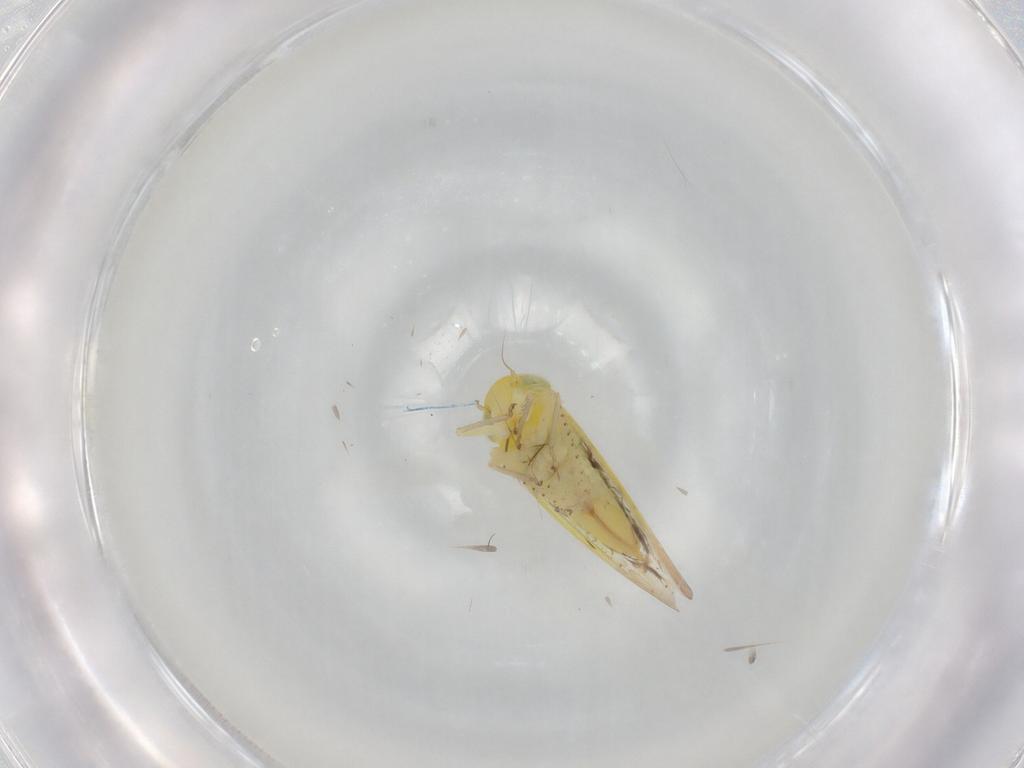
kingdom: Animalia
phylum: Arthropoda
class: Insecta
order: Hemiptera
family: Cicadellidae
